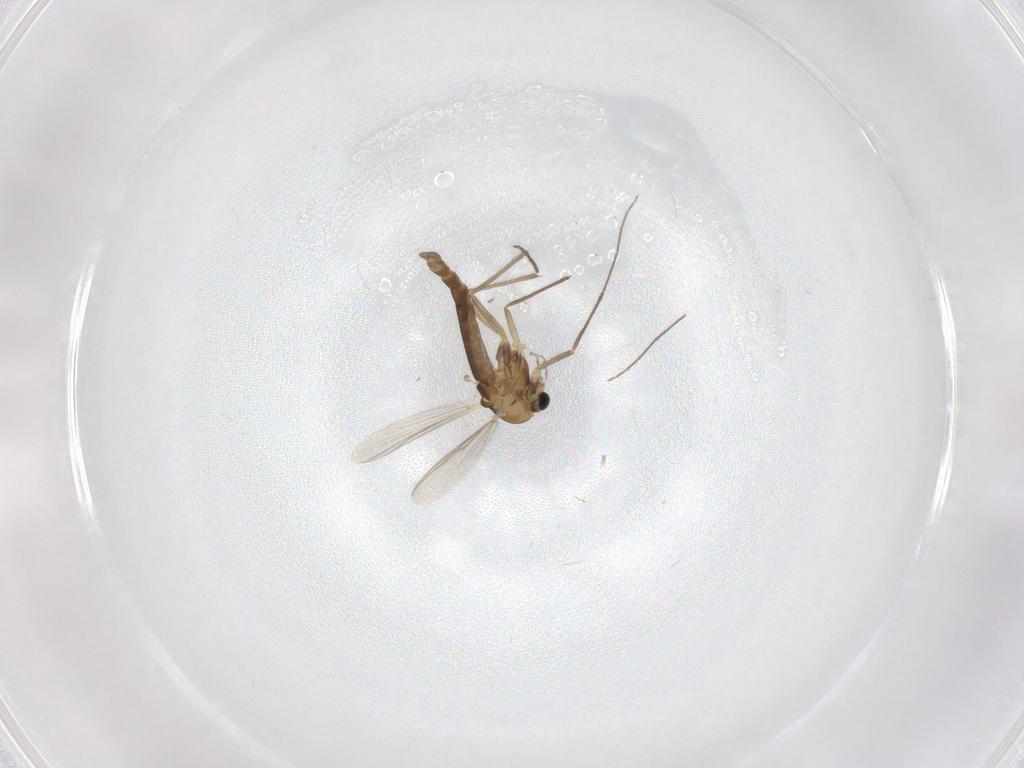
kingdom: Animalia
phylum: Arthropoda
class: Insecta
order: Diptera
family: Chironomidae
